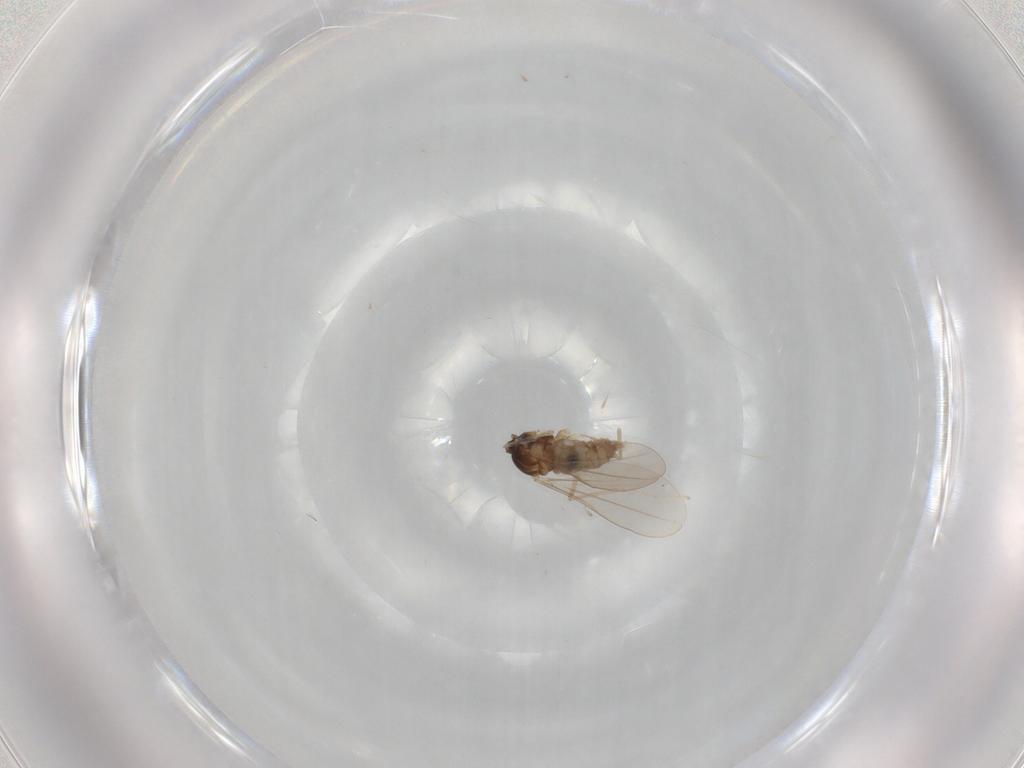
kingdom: Animalia
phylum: Arthropoda
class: Insecta
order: Diptera
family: Cecidomyiidae
